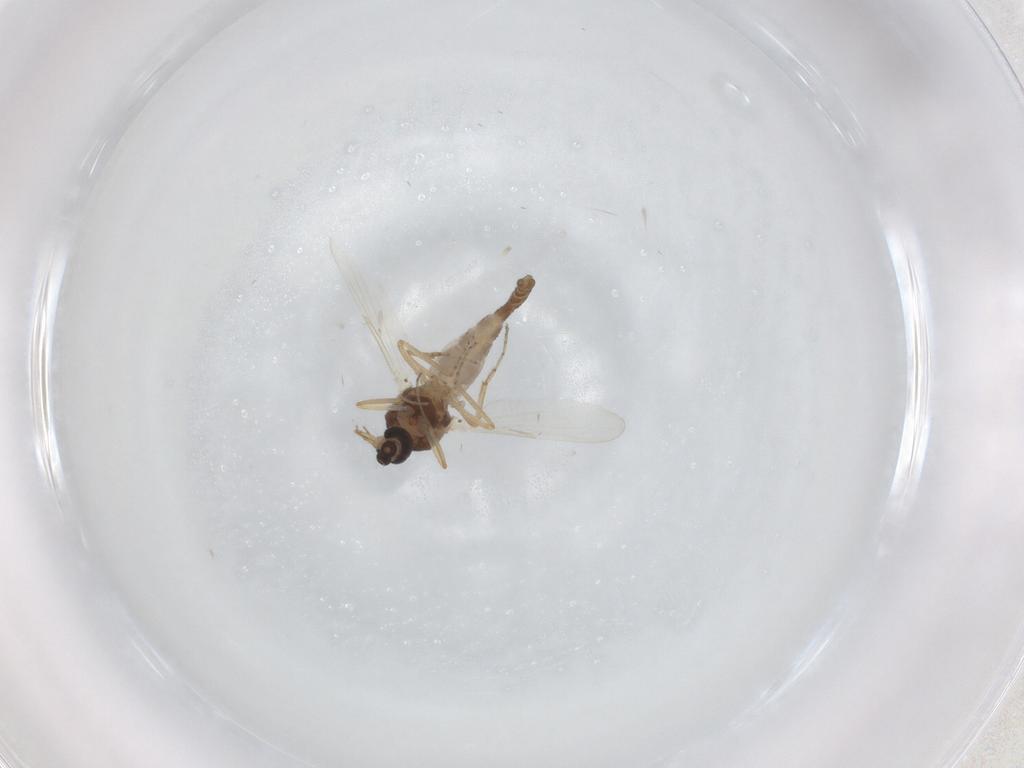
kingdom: Animalia
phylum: Arthropoda
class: Insecta
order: Diptera
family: Ceratopogonidae
